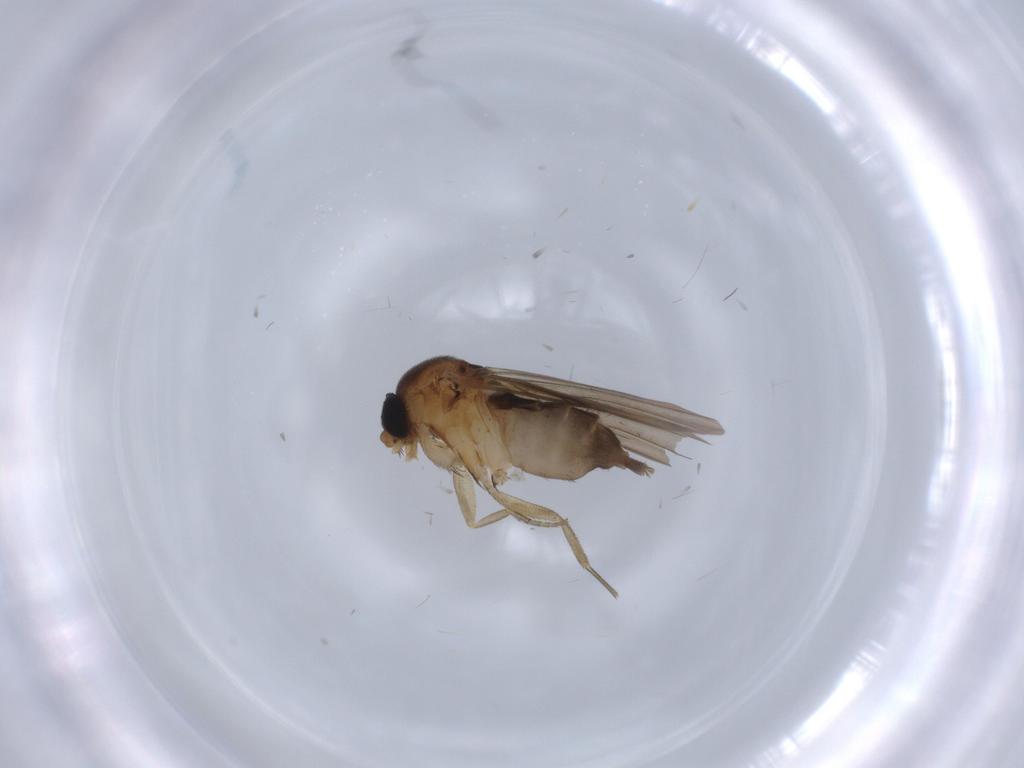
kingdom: Animalia
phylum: Arthropoda
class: Insecta
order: Diptera
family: Phoridae
